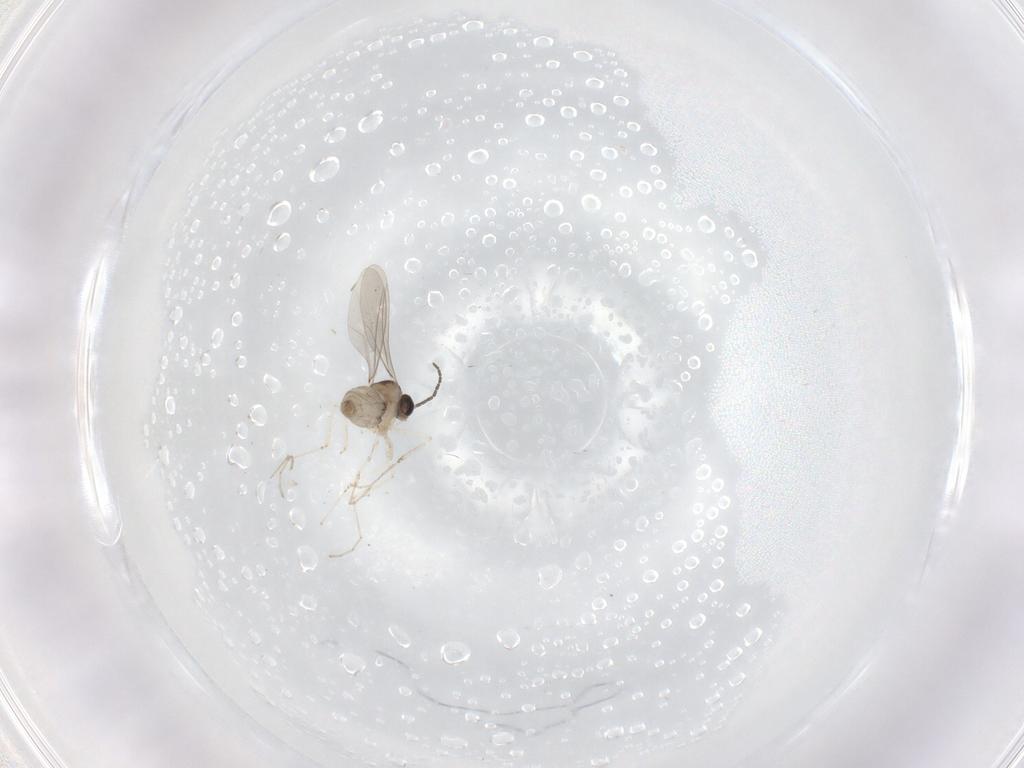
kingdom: Animalia
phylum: Arthropoda
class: Insecta
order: Diptera
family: Cecidomyiidae
